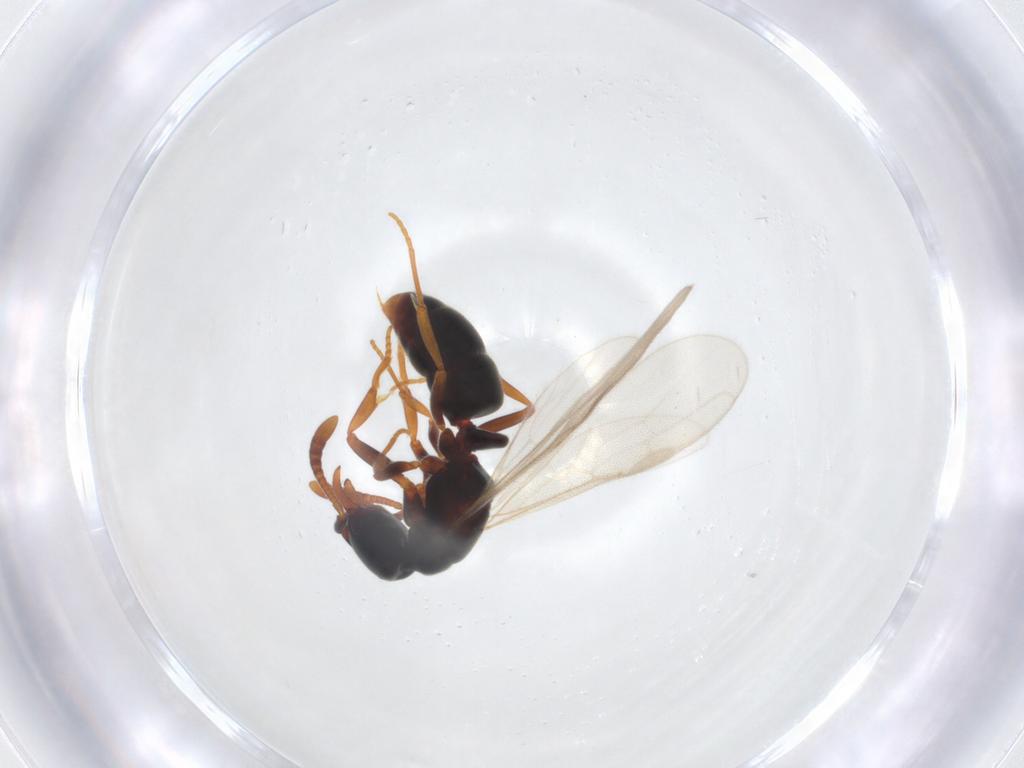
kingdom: Animalia
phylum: Arthropoda
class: Insecta
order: Hymenoptera
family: Formicidae
